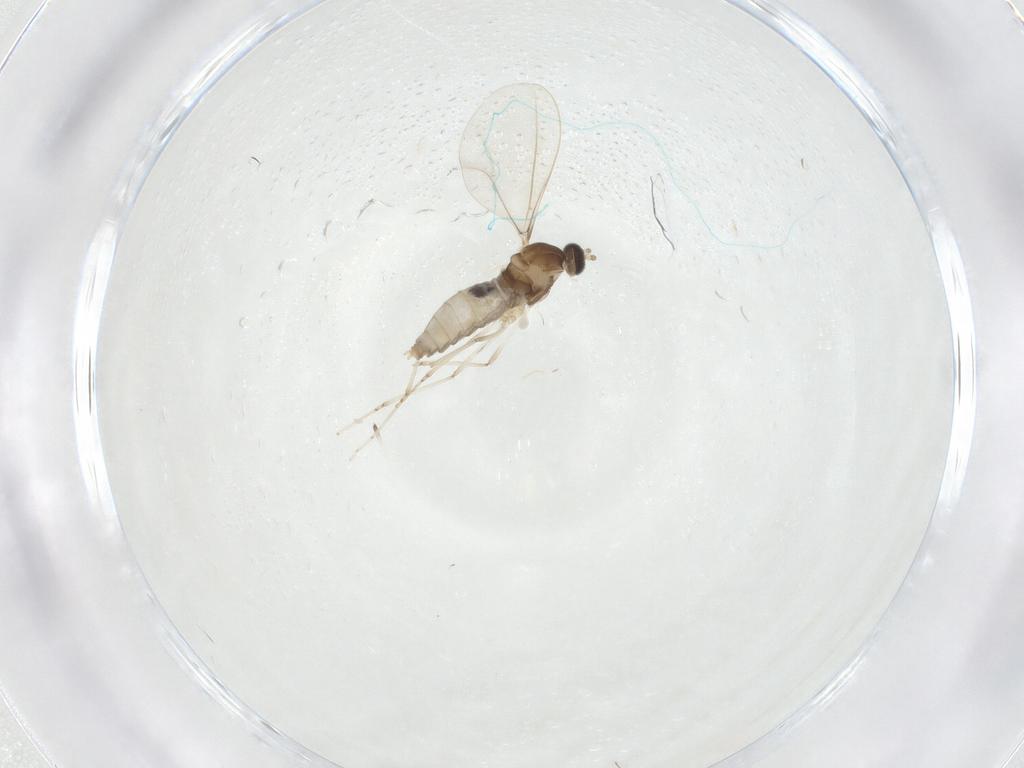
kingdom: Animalia
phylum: Arthropoda
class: Insecta
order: Diptera
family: Cecidomyiidae
